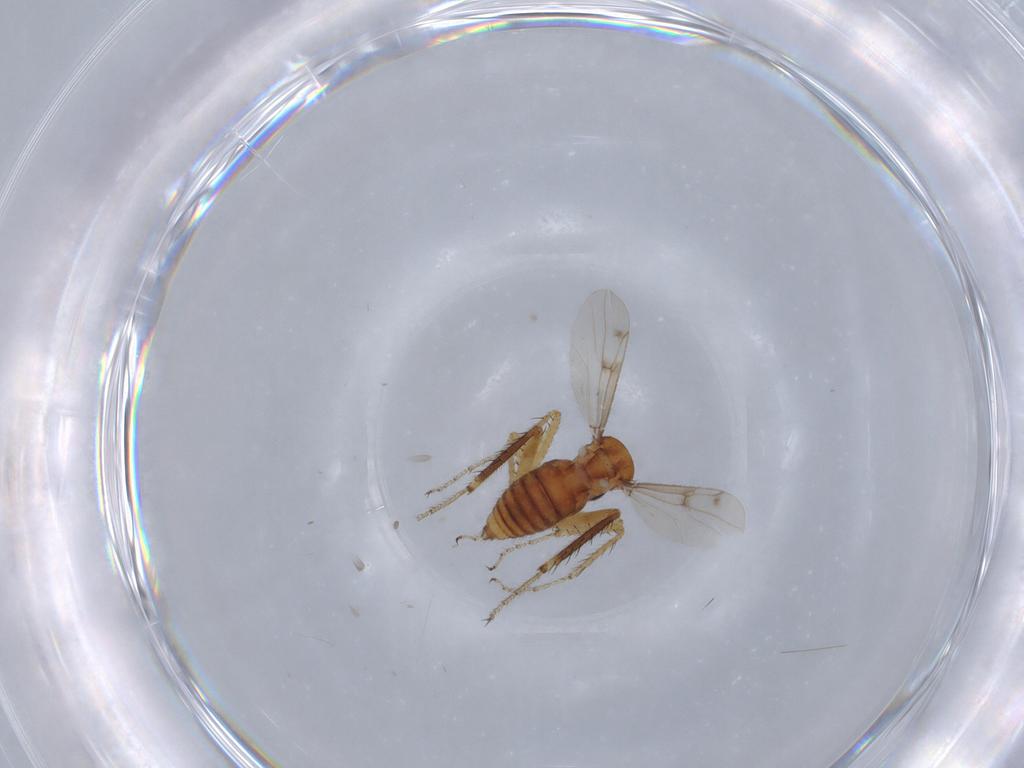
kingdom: Animalia
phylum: Arthropoda
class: Insecta
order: Diptera
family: Ceratopogonidae
